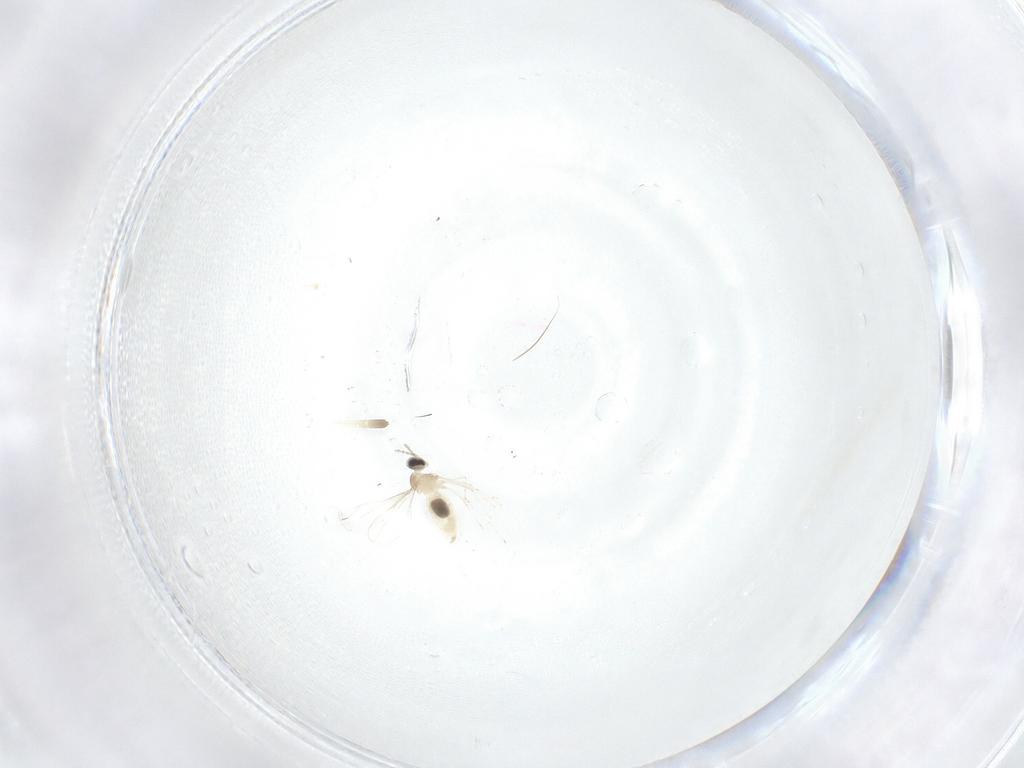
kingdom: Animalia
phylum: Arthropoda
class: Insecta
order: Diptera
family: Cecidomyiidae
